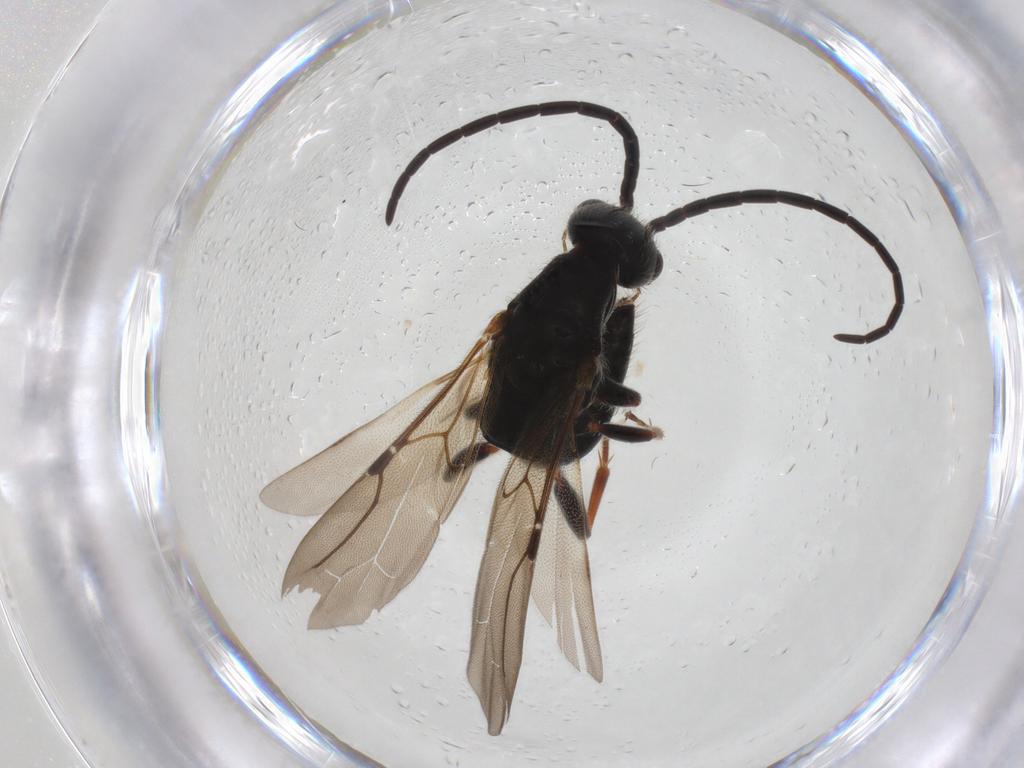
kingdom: Animalia
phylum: Arthropoda
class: Insecta
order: Hymenoptera
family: Bethylidae
